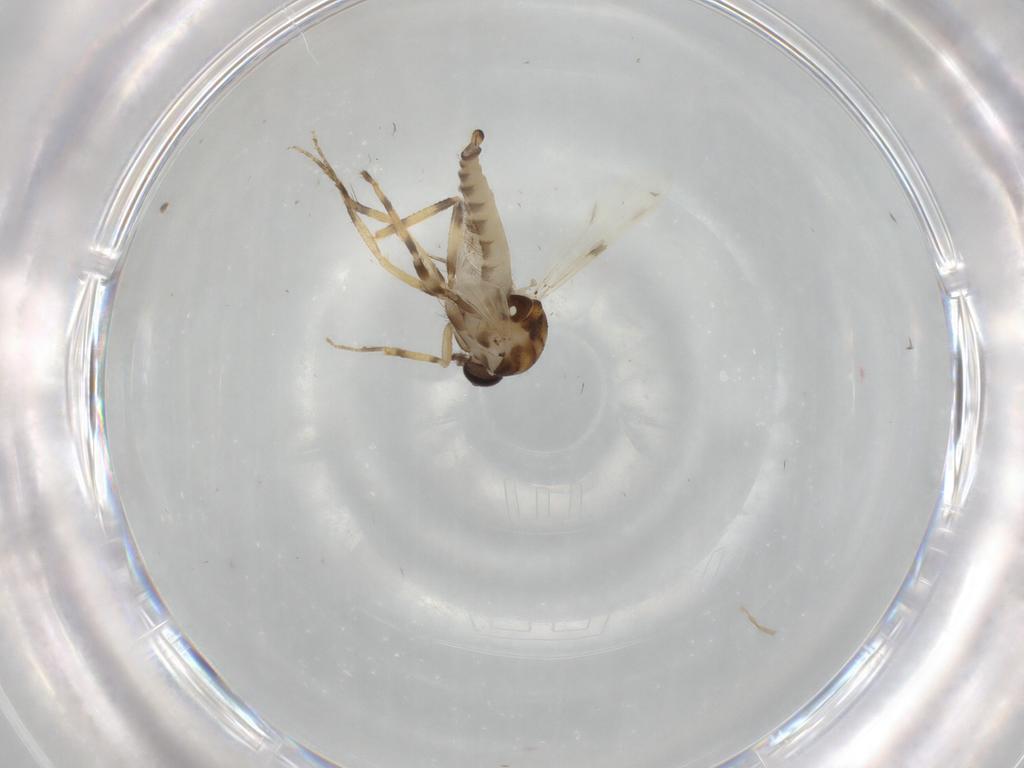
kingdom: Animalia
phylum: Arthropoda
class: Insecta
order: Diptera
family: Ceratopogonidae
